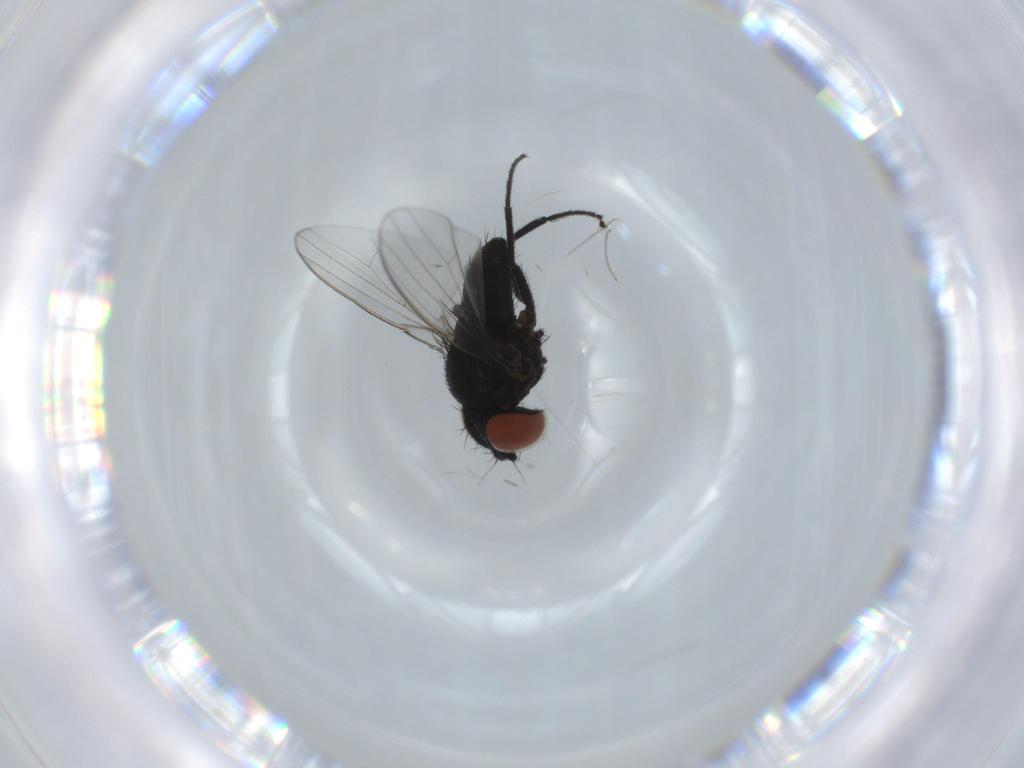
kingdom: Animalia
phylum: Arthropoda
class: Insecta
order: Diptera
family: Milichiidae
